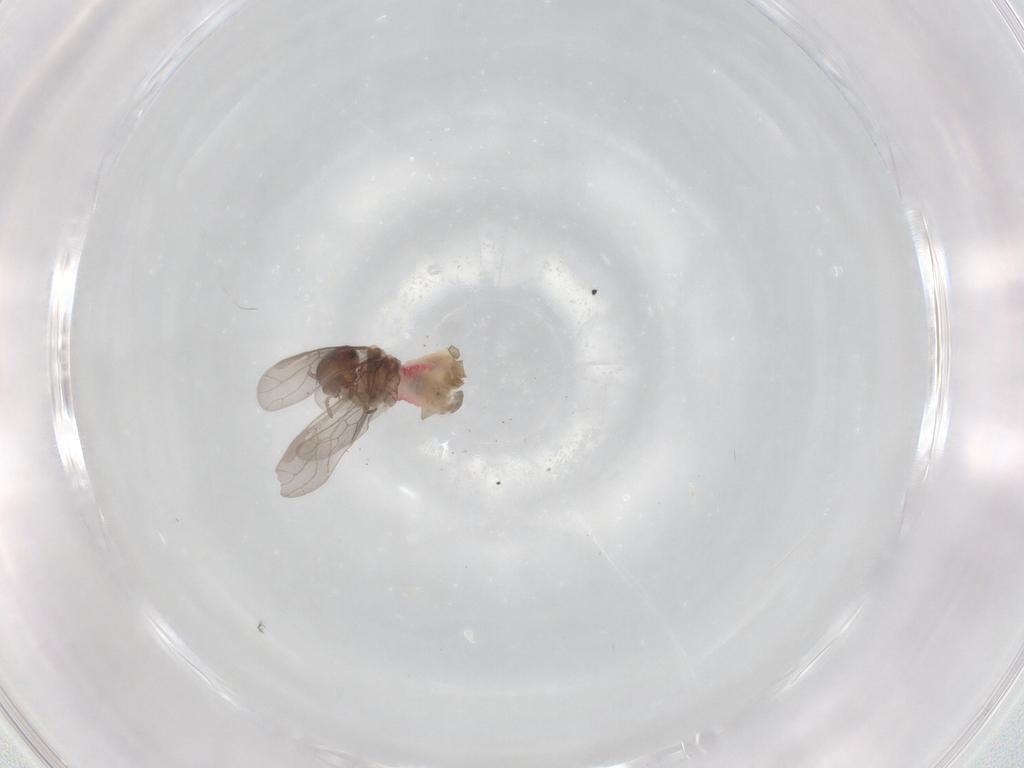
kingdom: Animalia
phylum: Arthropoda
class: Insecta
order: Psocodea
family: Asiopsocidae
